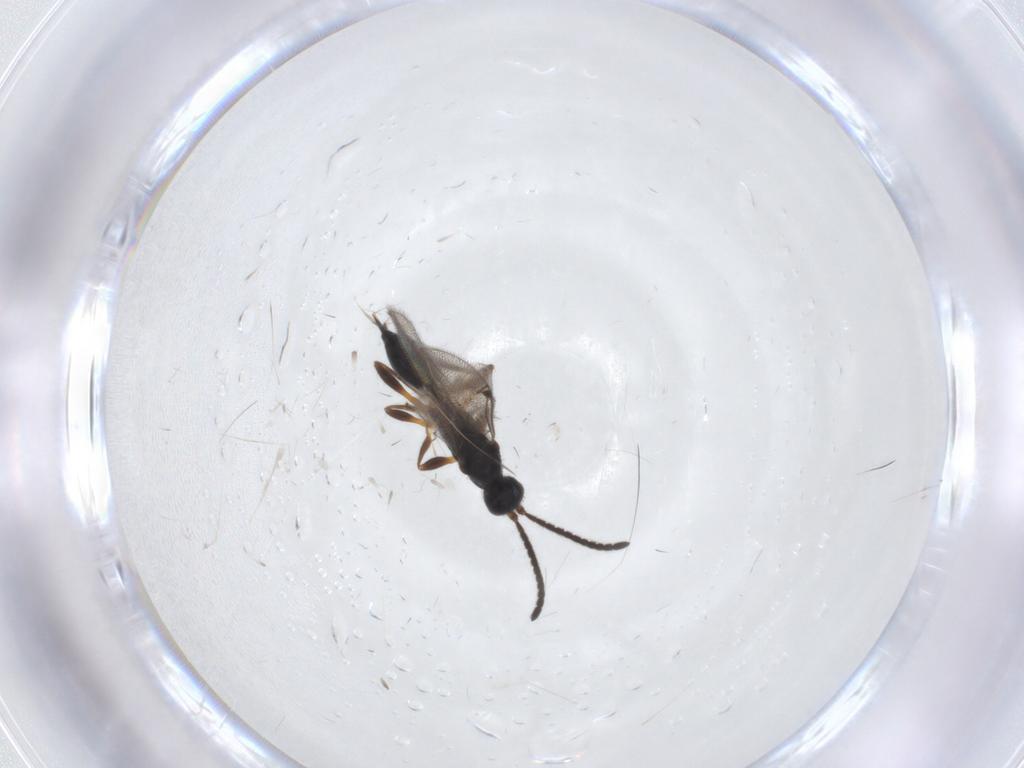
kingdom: Animalia
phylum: Arthropoda
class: Insecta
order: Hymenoptera
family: Proctotrupidae
